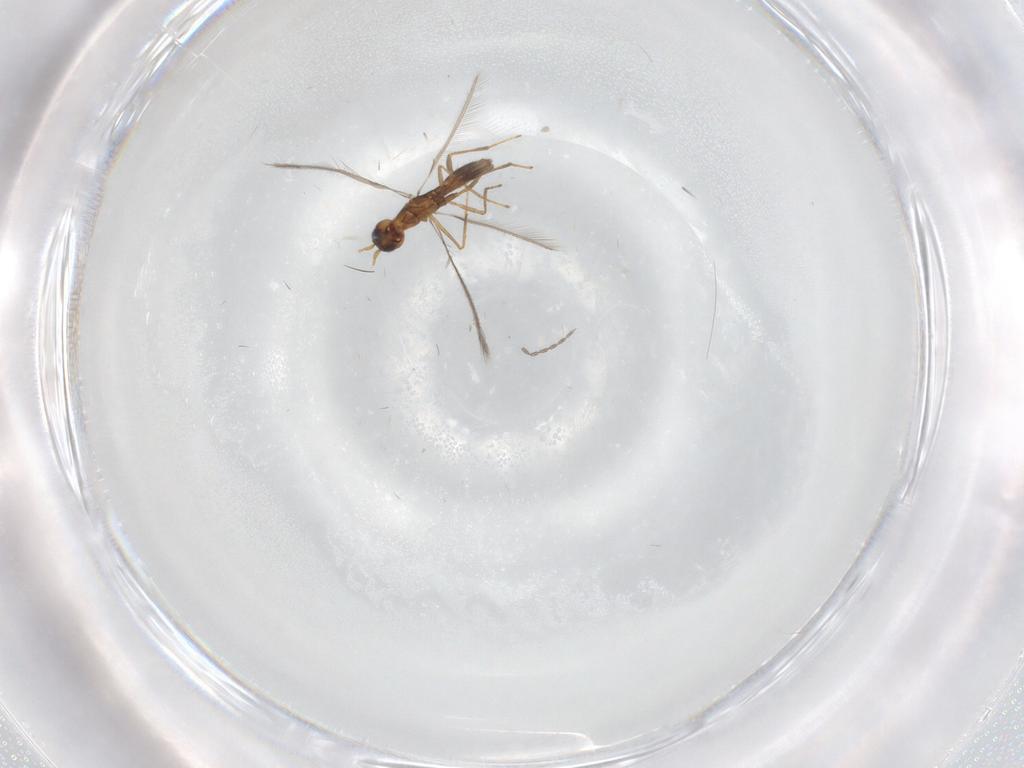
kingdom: Animalia
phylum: Arthropoda
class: Insecta
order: Diptera
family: Cecidomyiidae
